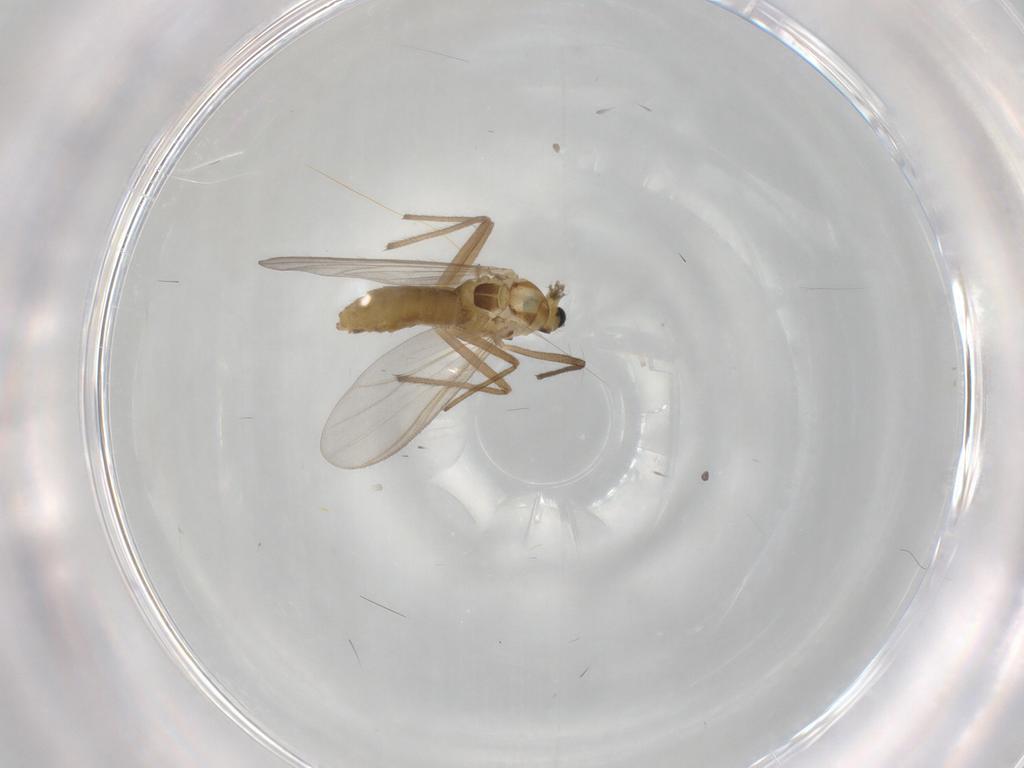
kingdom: Animalia
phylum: Arthropoda
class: Insecta
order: Diptera
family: Chironomidae
